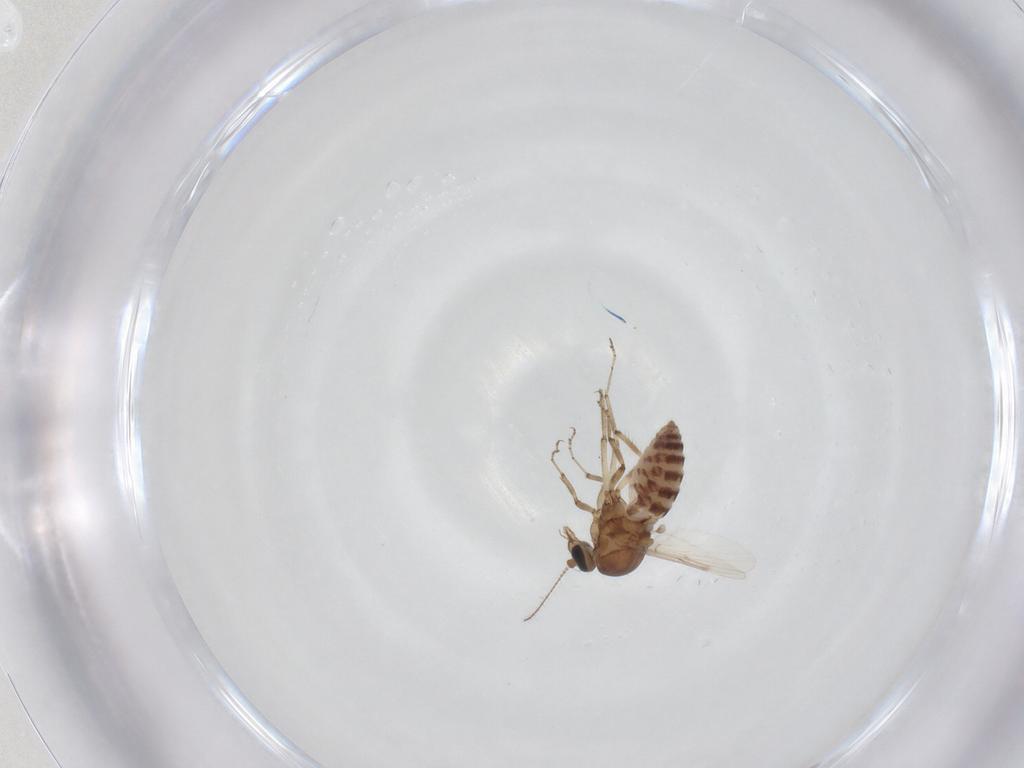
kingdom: Animalia
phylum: Arthropoda
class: Insecta
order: Diptera
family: Ceratopogonidae
